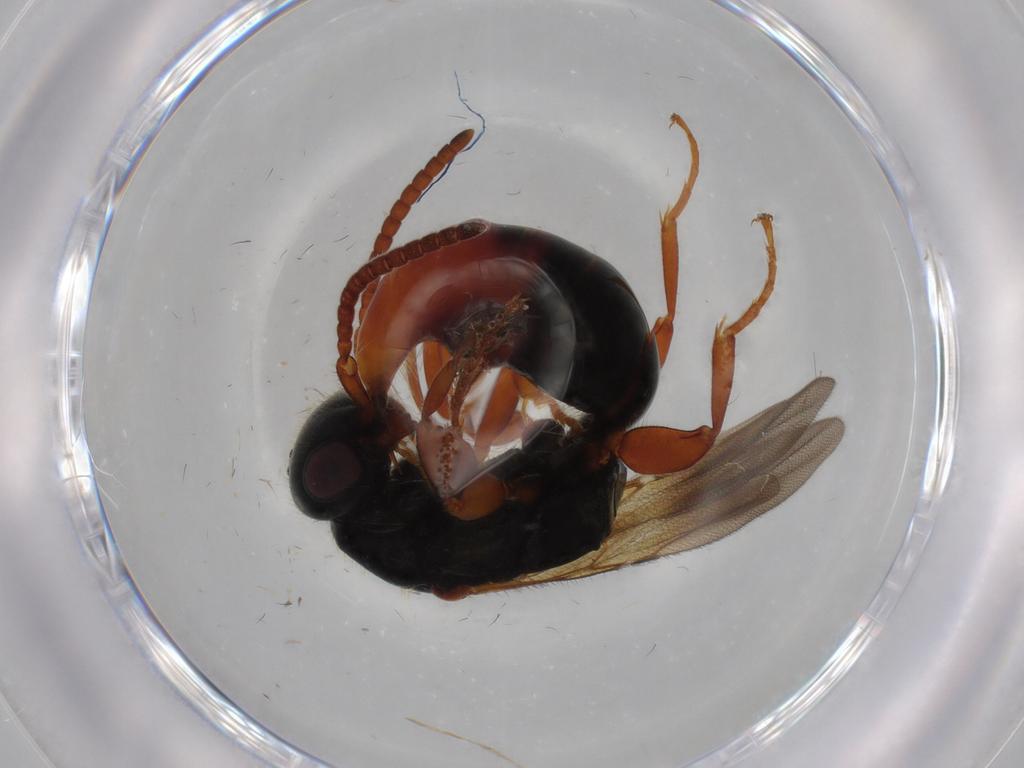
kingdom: Animalia
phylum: Arthropoda
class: Insecta
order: Hymenoptera
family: Bethylidae
